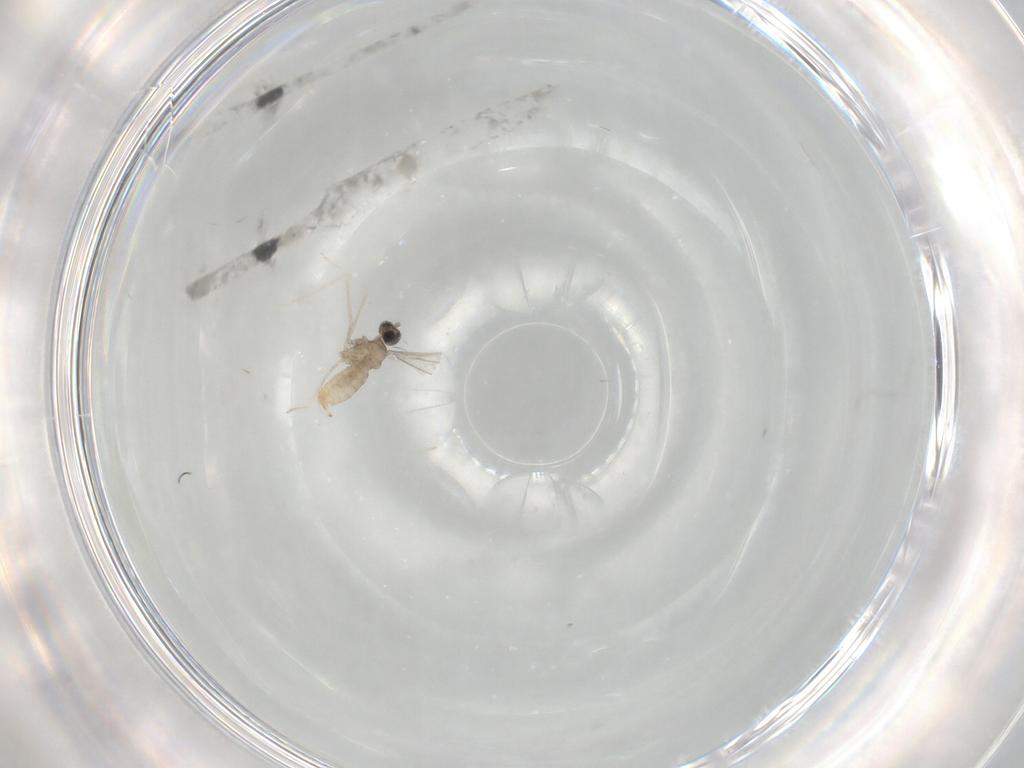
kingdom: Animalia
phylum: Arthropoda
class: Insecta
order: Diptera
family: Cecidomyiidae
